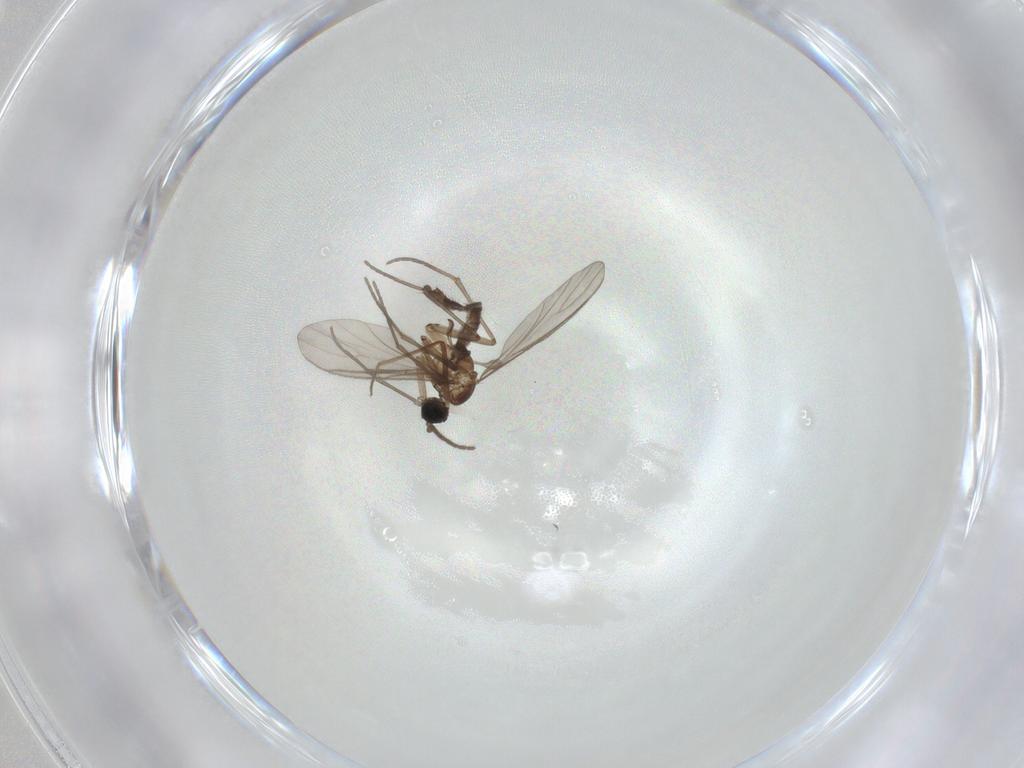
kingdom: Animalia
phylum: Arthropoda
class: Insecta
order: Diptera
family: Sciaridae
